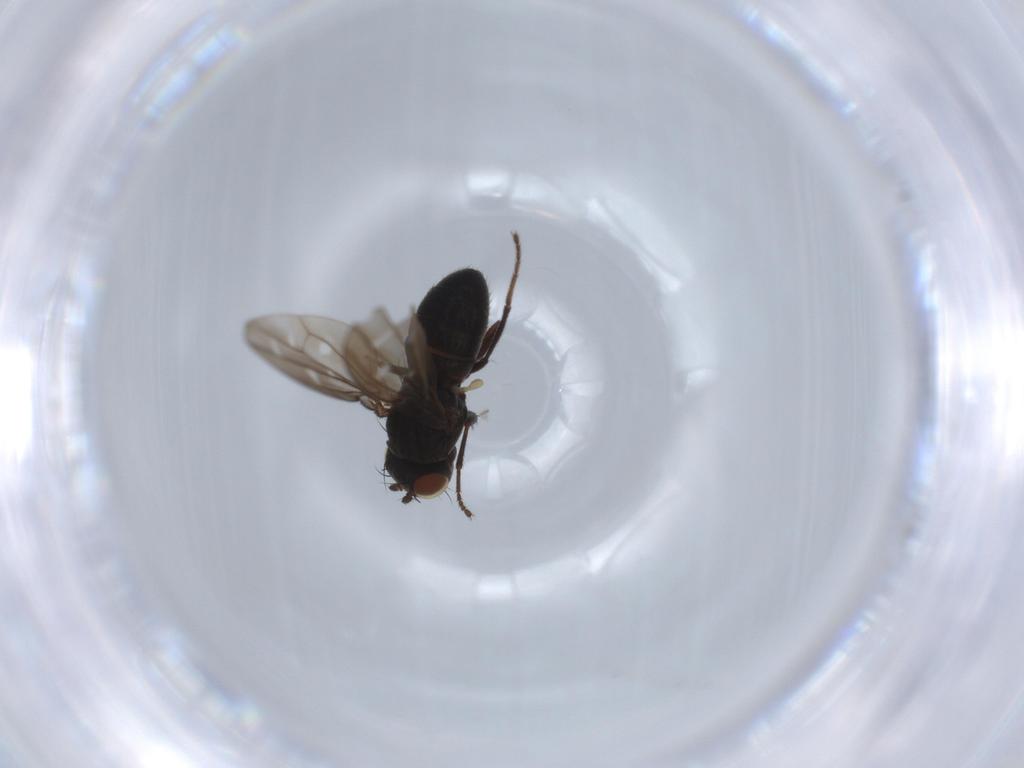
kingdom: Animalia
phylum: Arthropoda
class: Insecta
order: Diptera
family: Ephydridae
